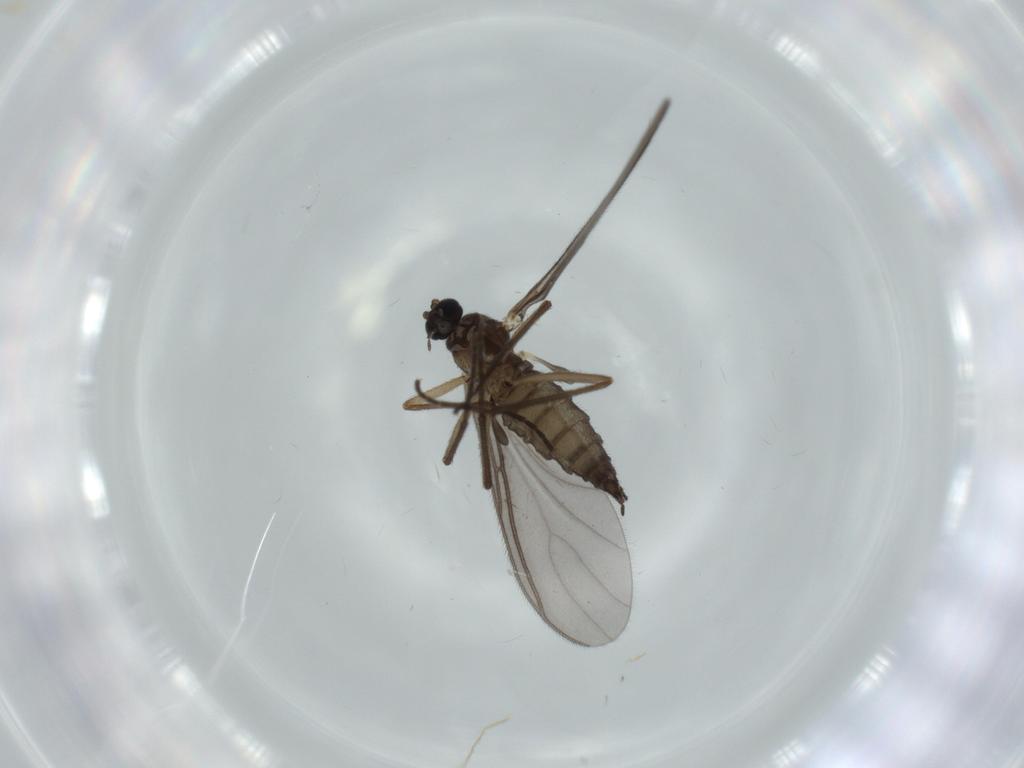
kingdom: Animalia
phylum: Arthropoda
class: Insecta
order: Diptera
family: Sciaridae
